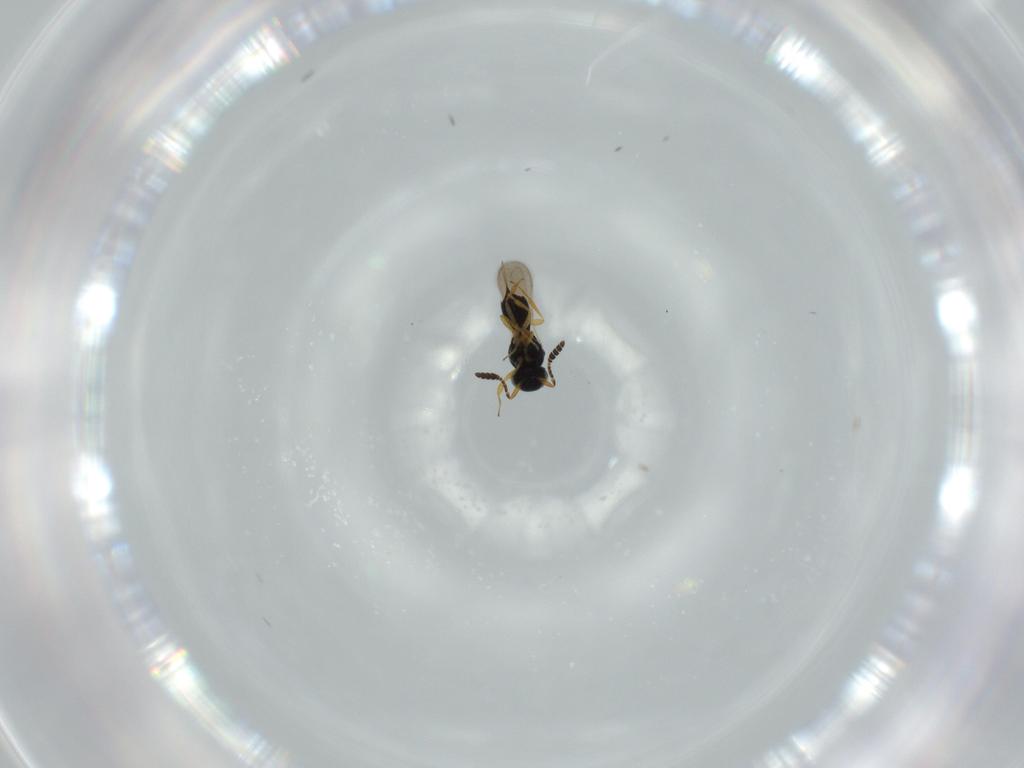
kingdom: Animalia
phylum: Arthropoda
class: Insecta
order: Hymenoptera
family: Scelionidae
